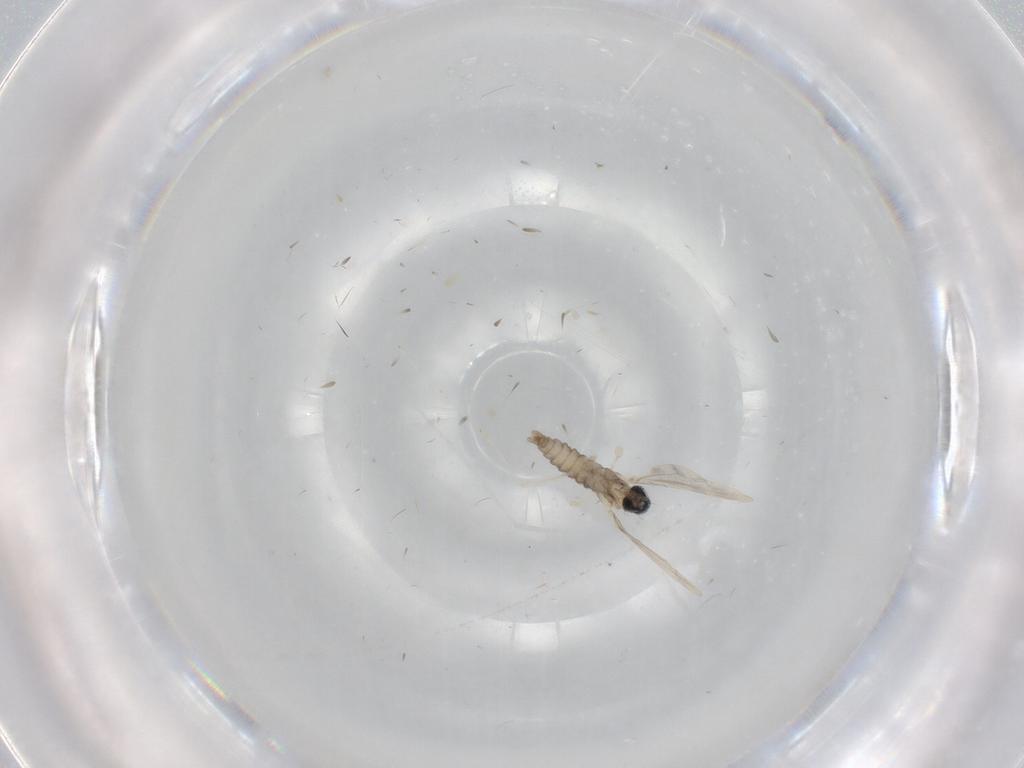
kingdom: Animalia
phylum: Arthropoda
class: Insecta
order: Diptera
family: Cecidomyiidae
